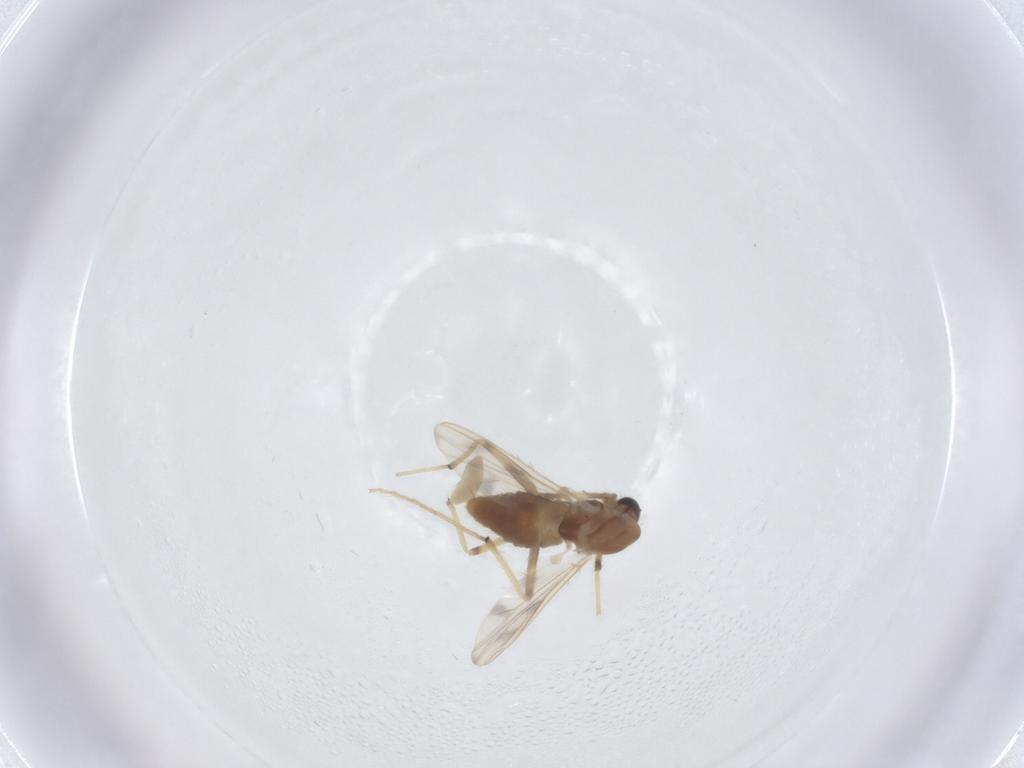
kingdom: Animalia
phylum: Arthropoda
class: Insecta
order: Diptera
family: Chironomidae
